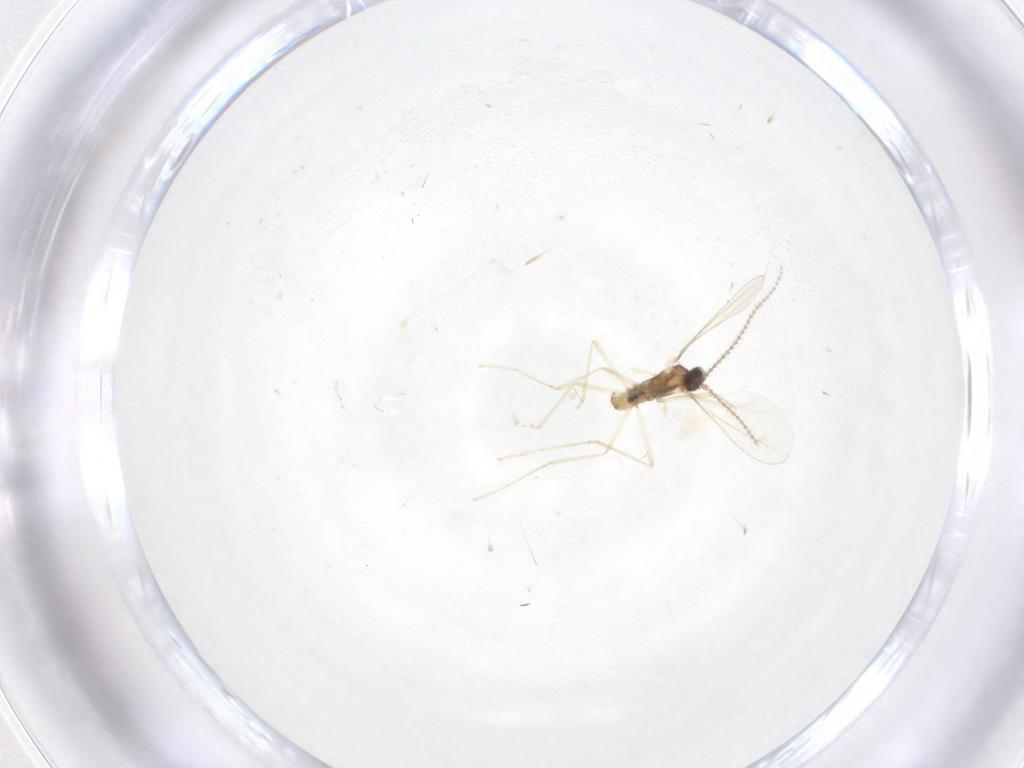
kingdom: Animalia
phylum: Arthropoda
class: Insecta
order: Diptera
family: Cecidomyiidae
